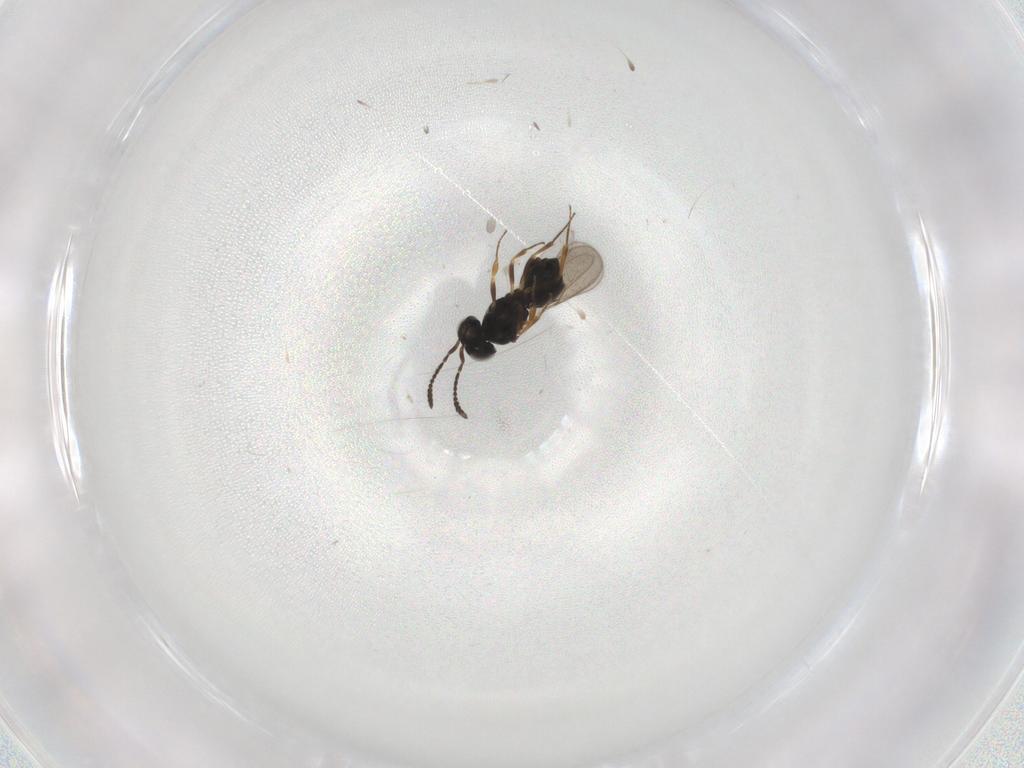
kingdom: Animalia
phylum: Arthropoda
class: Insecta
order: Hymenoptera
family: Scelionidae
